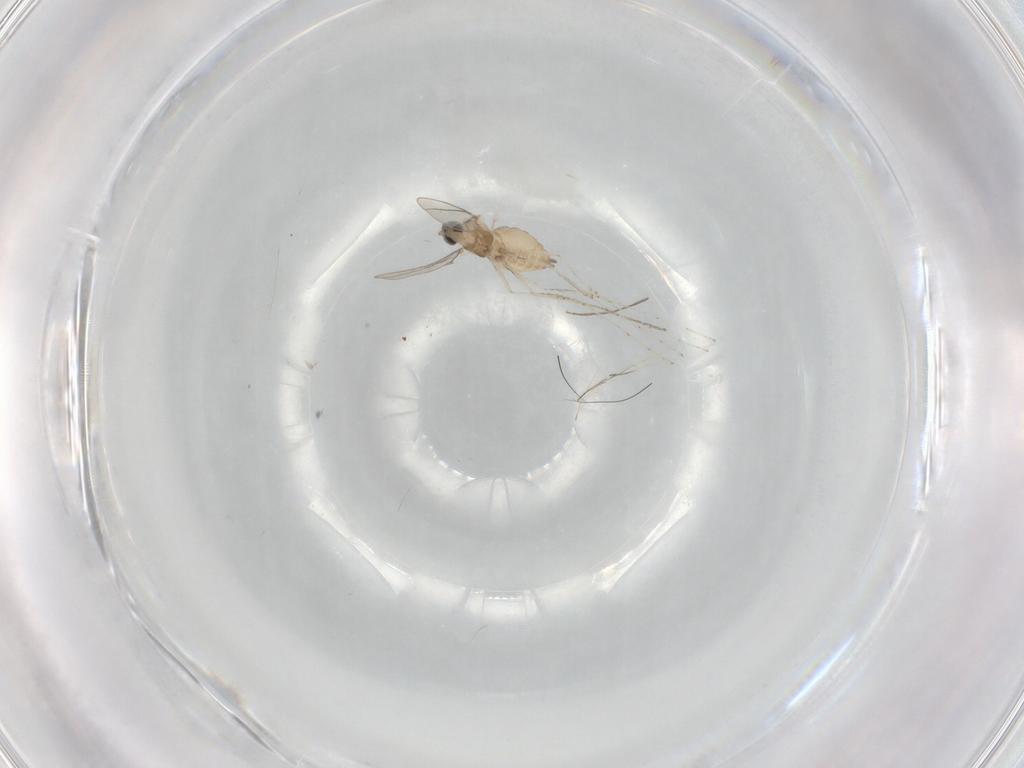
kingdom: Animalia
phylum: Arthropoda
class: Insecta
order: Diptera
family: Cecidomyiidae
